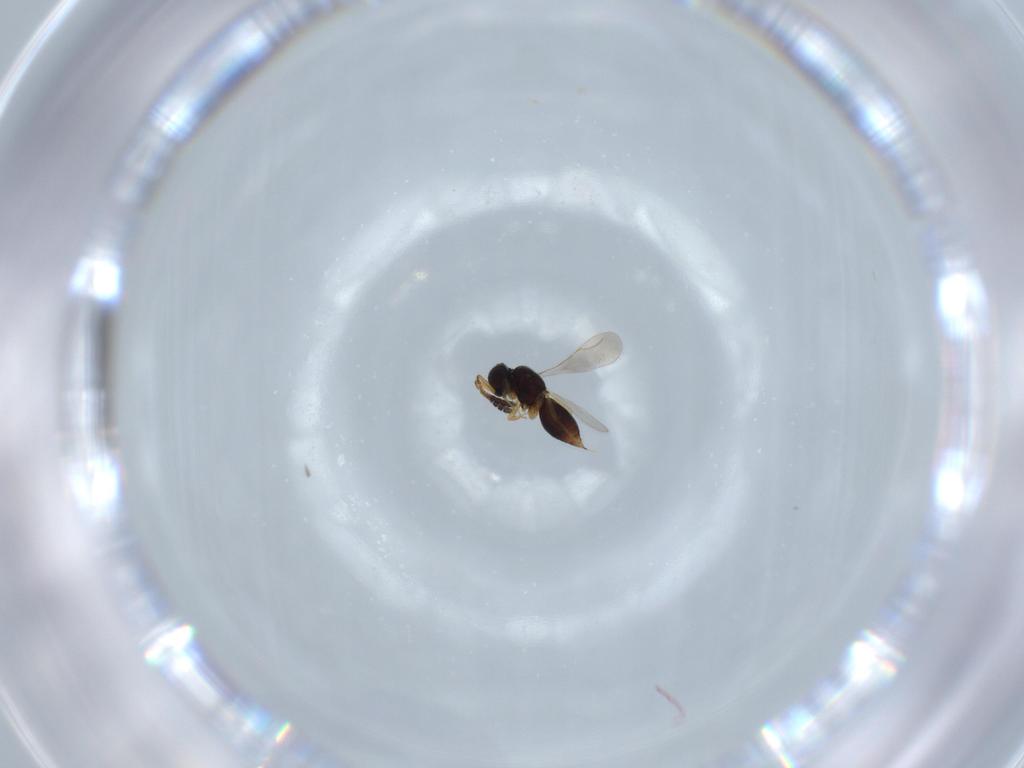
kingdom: Animalia
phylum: Arthropoda
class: Insecta
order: Hymenoptera
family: Ceraphronidae
